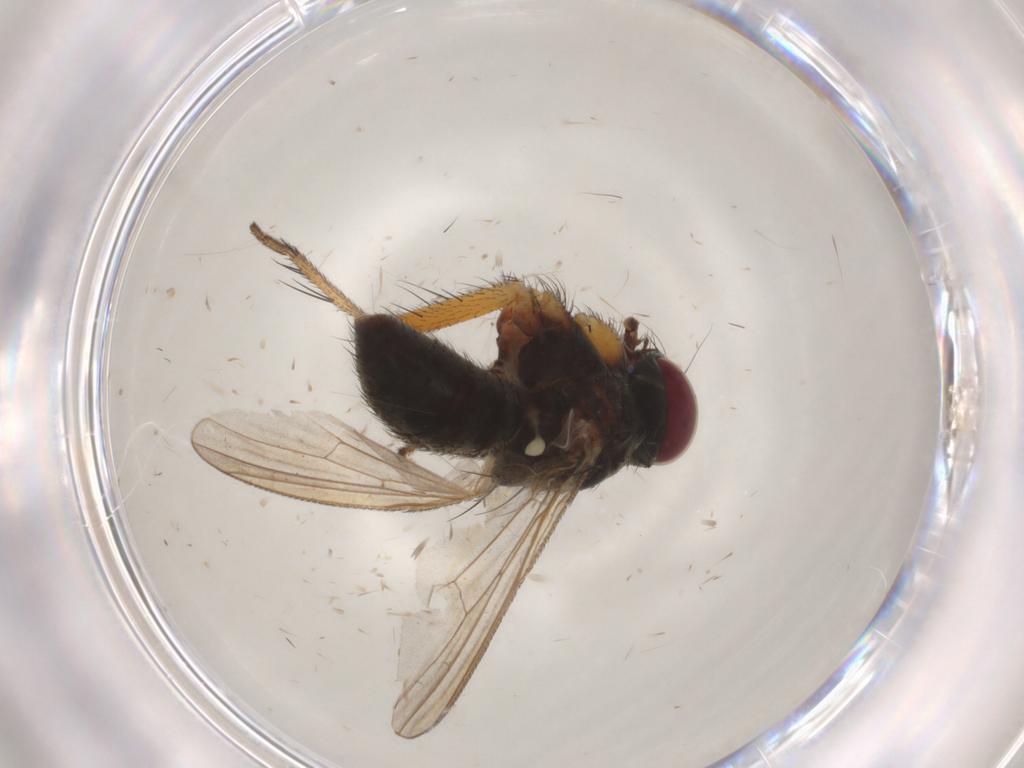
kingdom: Animalia
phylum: Arthropoda
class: Insecta
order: Diptera
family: Muscidae
